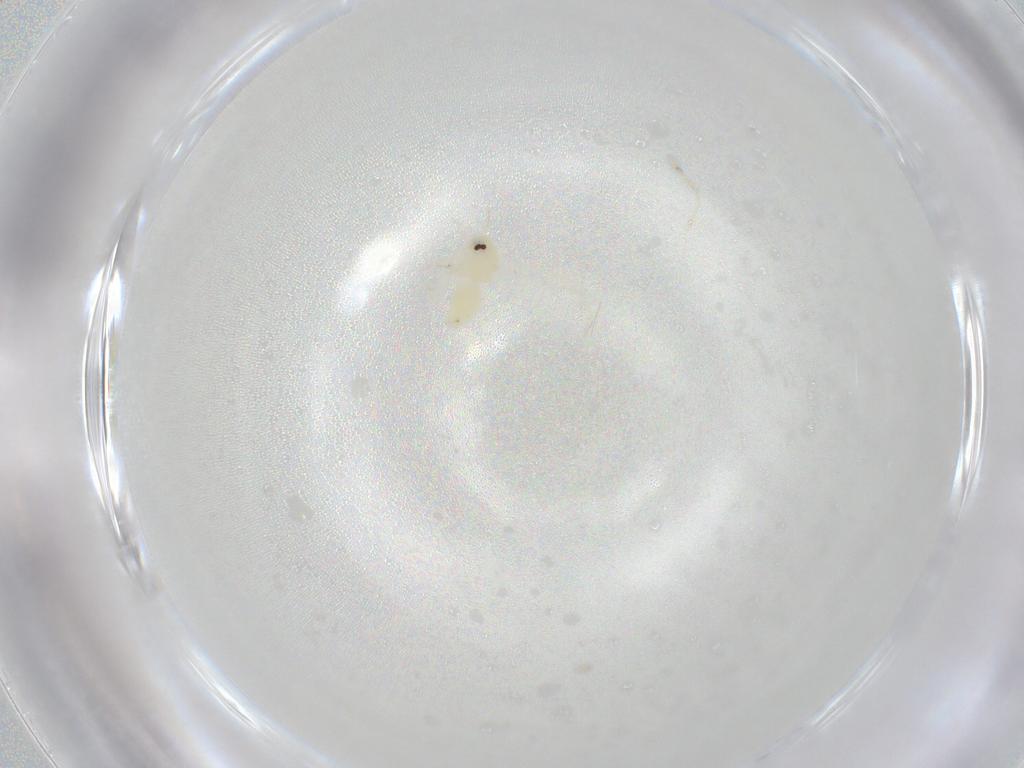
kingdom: Animalia
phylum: Arthropoda
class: Insecta
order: Hemiptera
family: Aleyrodidae
